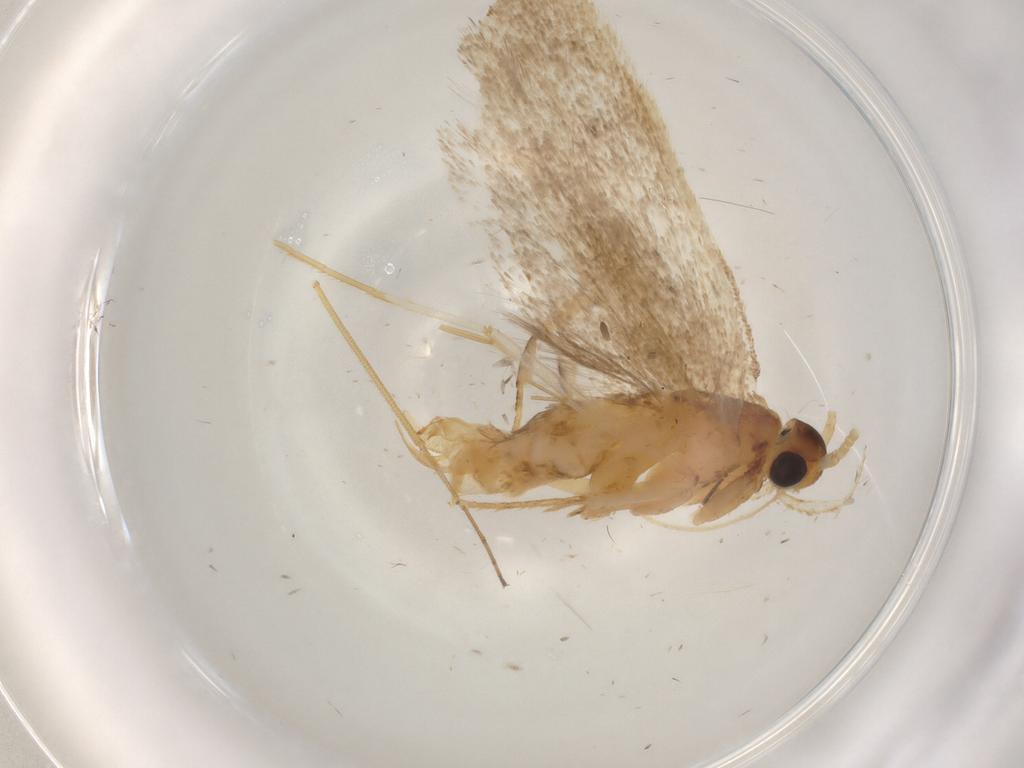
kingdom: Animalia
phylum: Arthropoda
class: Insecta
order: Lepidoptera
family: Lecithoceridae
